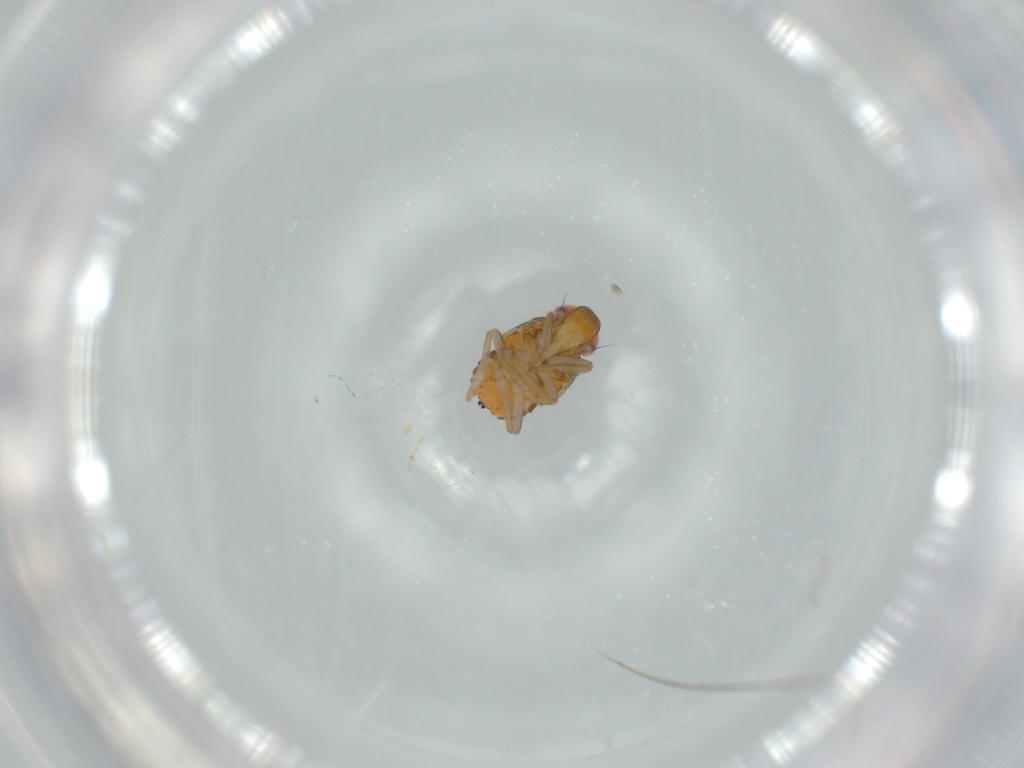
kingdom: Animalia
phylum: Arthropoda
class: Insecta
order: Hemiptera
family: Issidae
